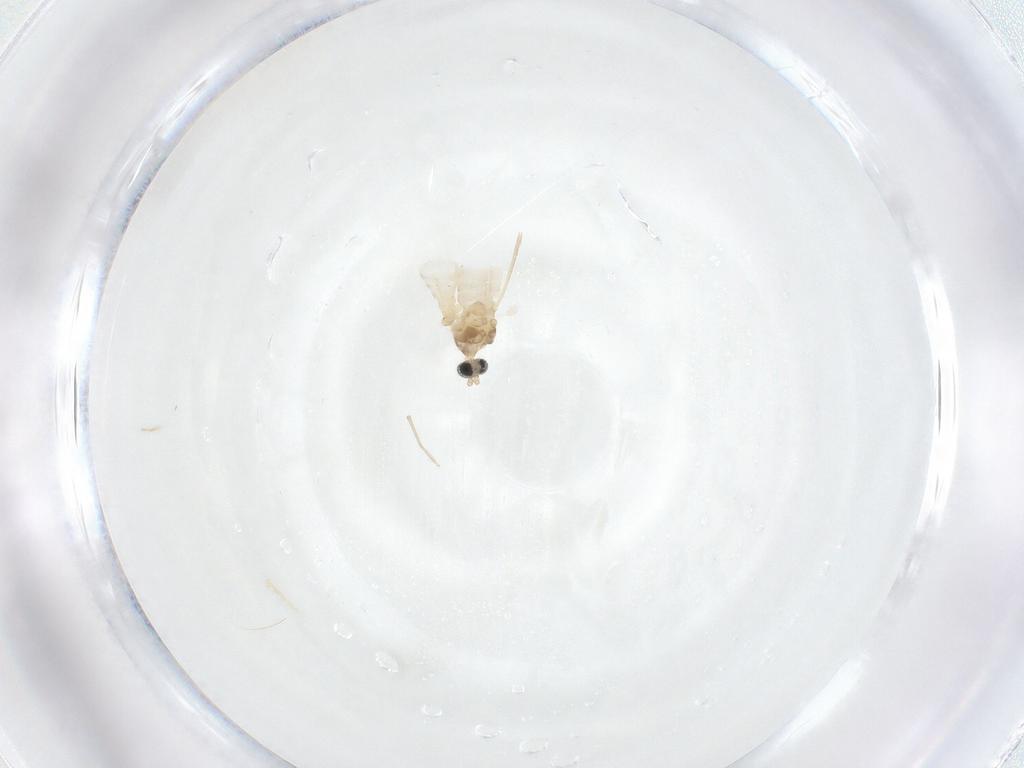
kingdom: Animalia
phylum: Arthropoda
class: Insecta
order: Diptera
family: Cecidomyiidae
